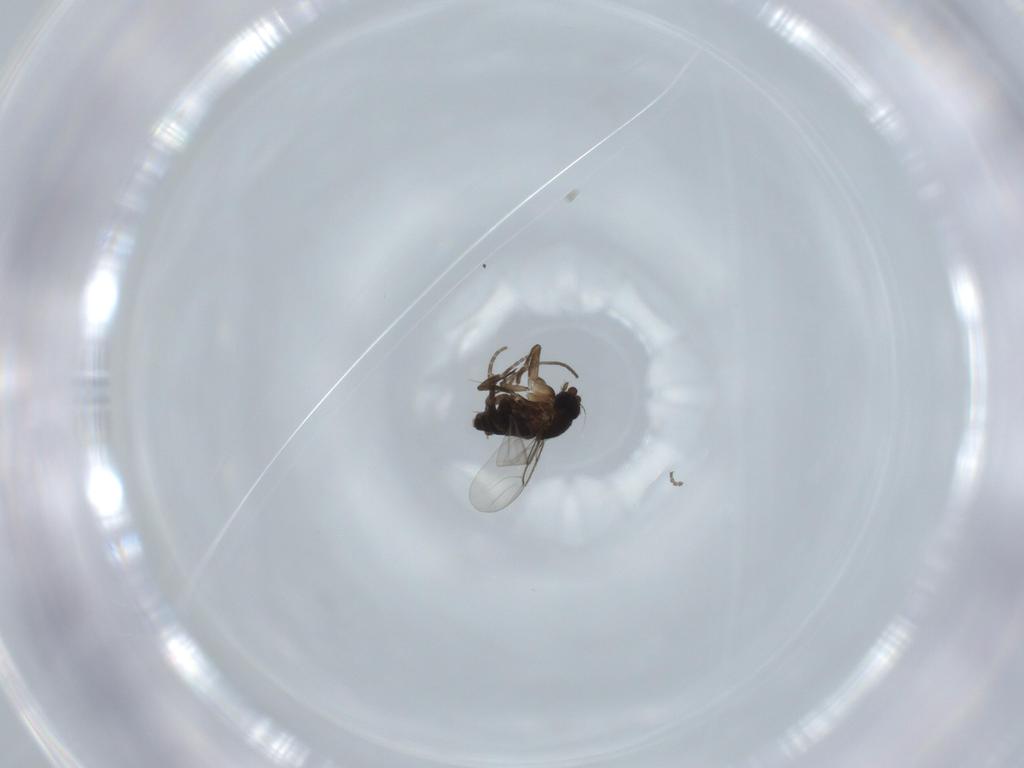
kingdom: Animalia
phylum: Arthropoda
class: Insecta
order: Diptera
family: Phoridae
